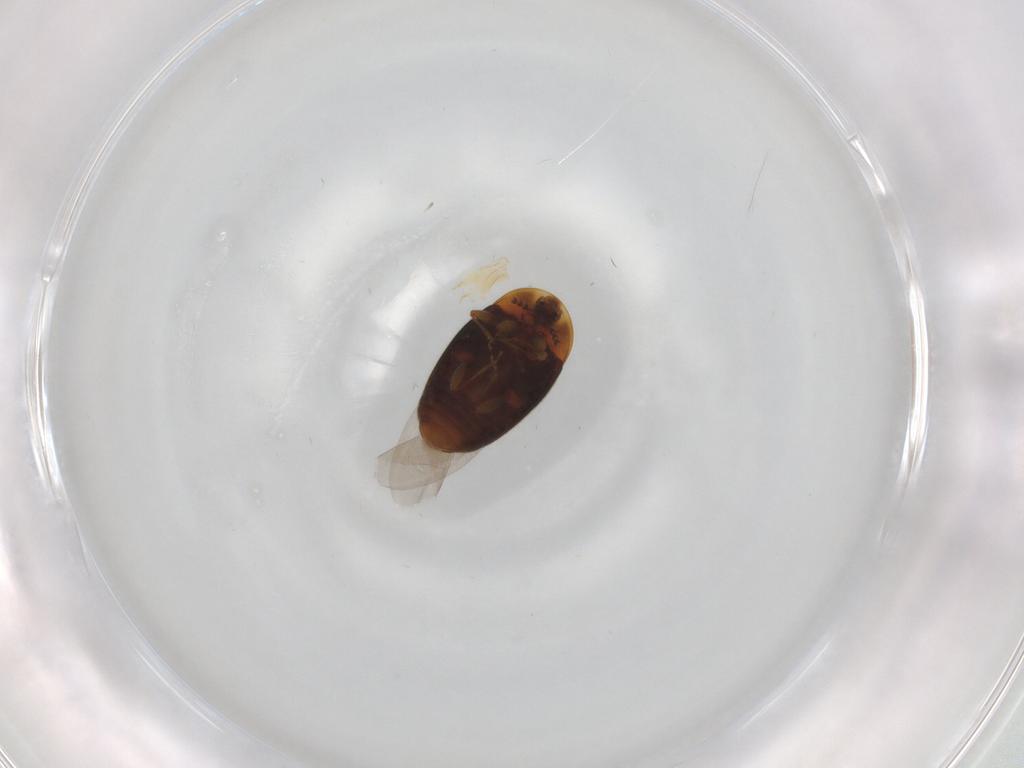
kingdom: Animalia
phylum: Arthropoda
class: Insecta
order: Coleoptera
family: Corylophidae
